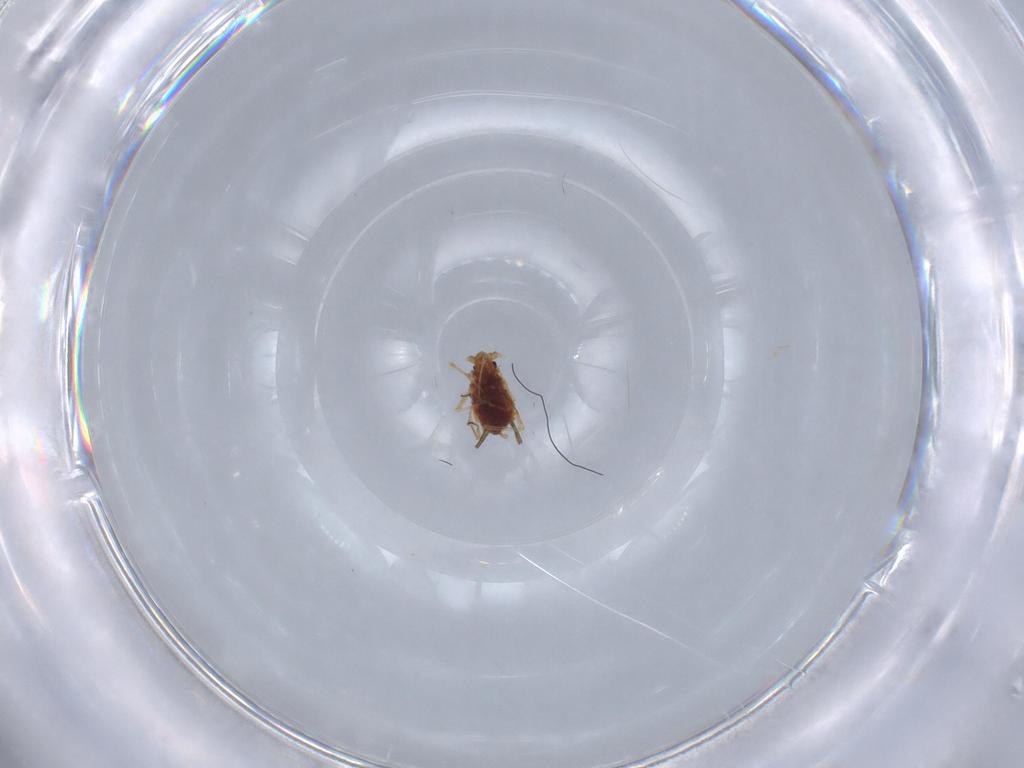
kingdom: Animalia
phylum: Arthropoda
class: Insecta
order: Hemiptera
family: Aphididae
